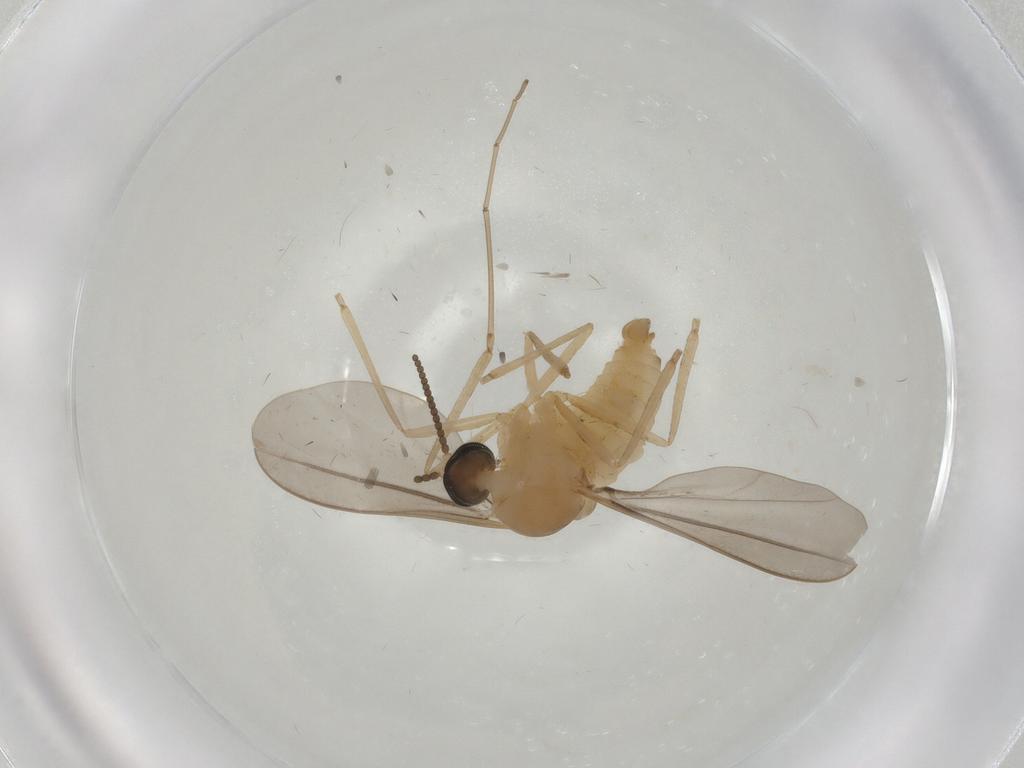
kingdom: Animalia
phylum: Arthropoda
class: Insecta
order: Diptera
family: Cecidomyiidae
